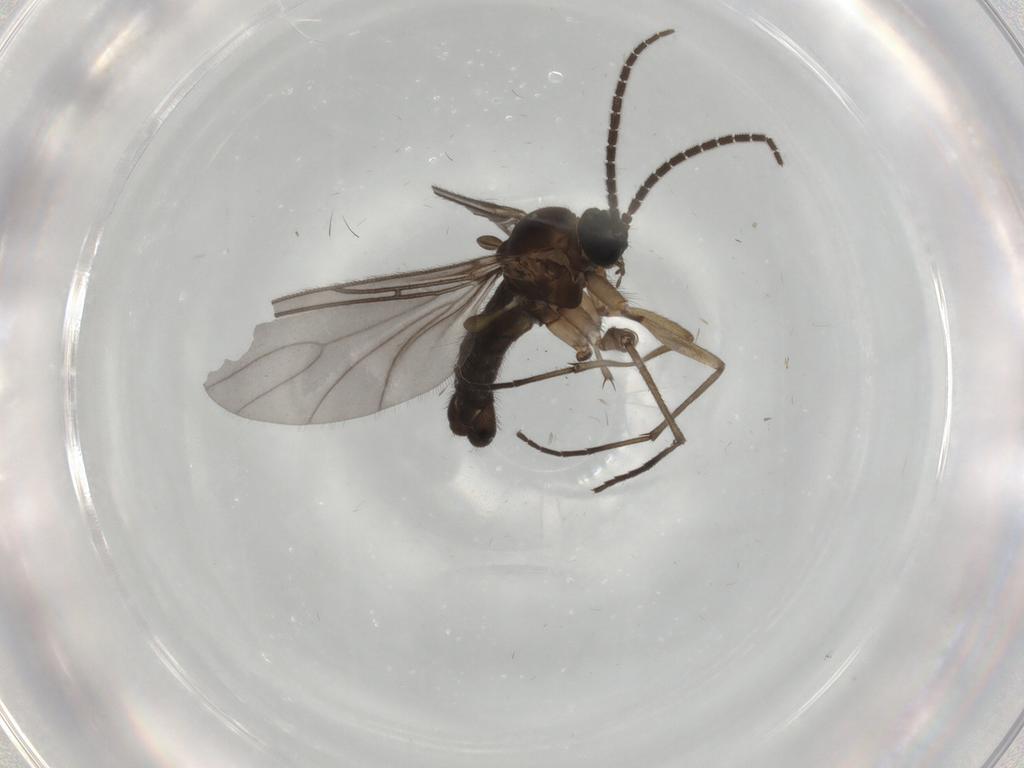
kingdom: Animalia
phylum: Arthropoda
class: Insecta
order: Diptera
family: Sciaridae
